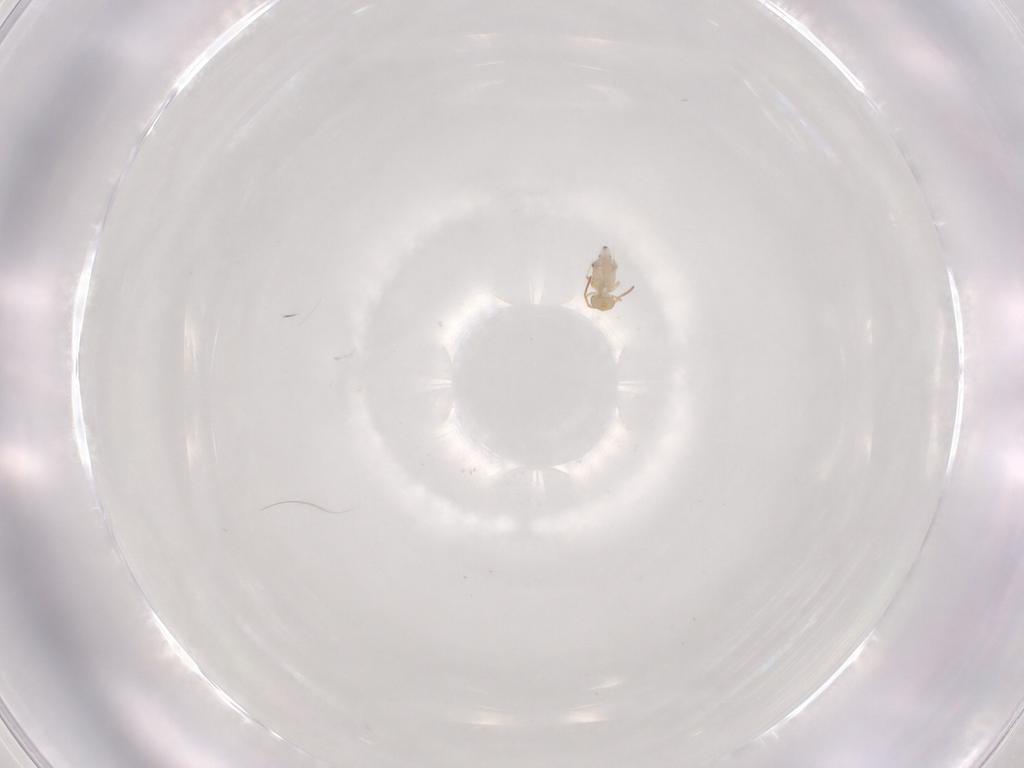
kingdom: Animalia
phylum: Arthropoda
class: Collembola
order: Symphypleona
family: Bourletiellidae
